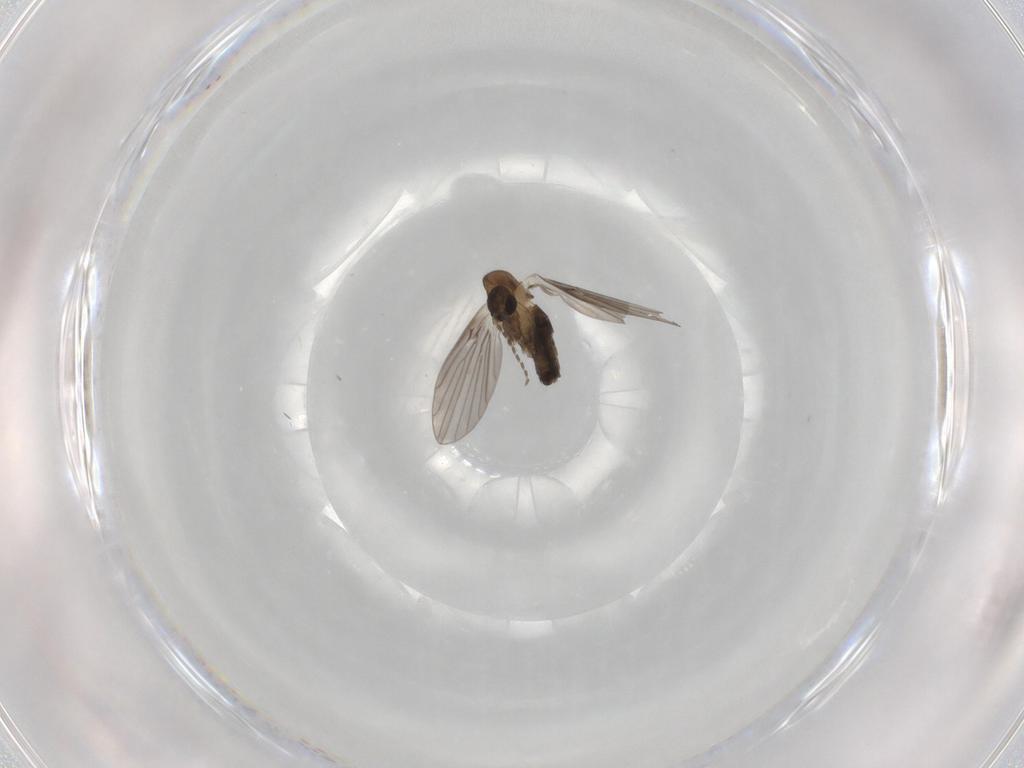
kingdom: Animalia
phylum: Arthropoda
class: Insecta
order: Diptera
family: Psychodidae
